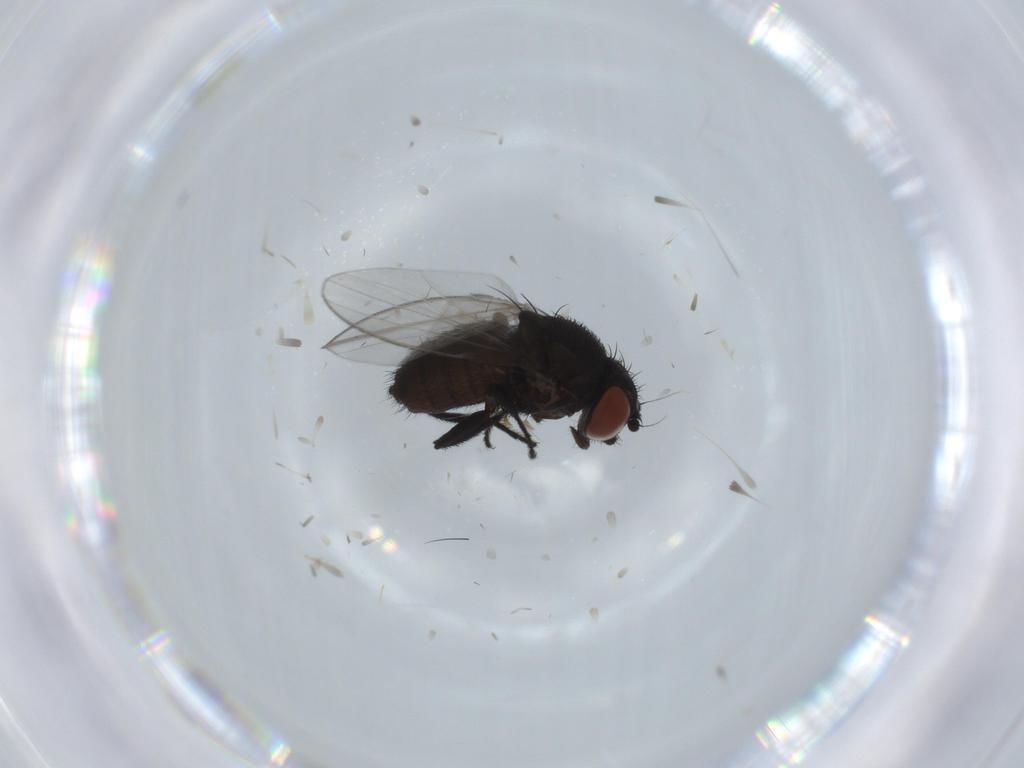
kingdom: Animalia
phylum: Arthropoda
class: Insecta
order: Diptera
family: Milichiidae
